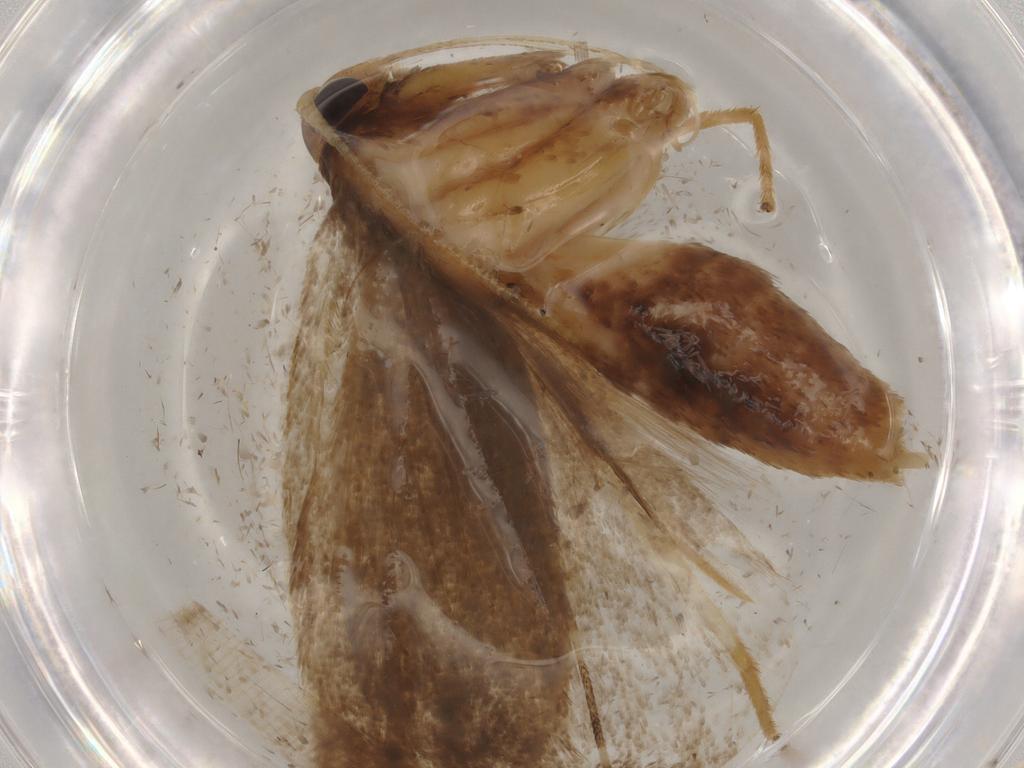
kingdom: Animalia
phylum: Arthropoda
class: Insecta
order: Lepidoptera
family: Lecithoceridae
